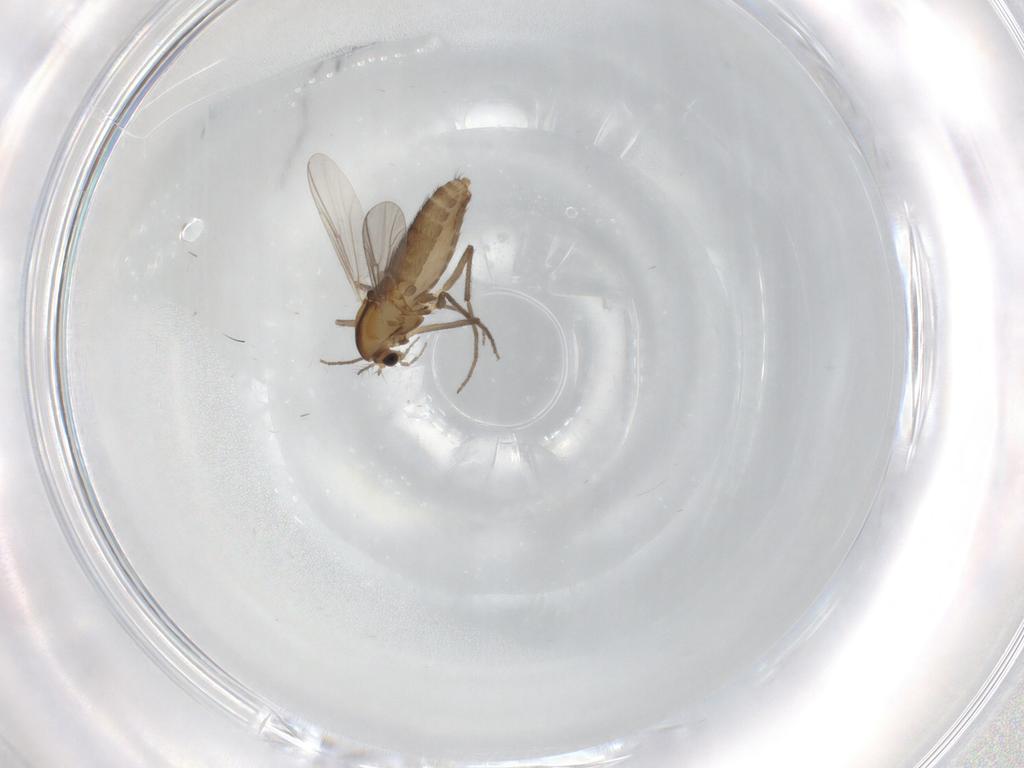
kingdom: Animalia
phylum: Arthropoda
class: Insecta
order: Diptera
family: Chironomidae
